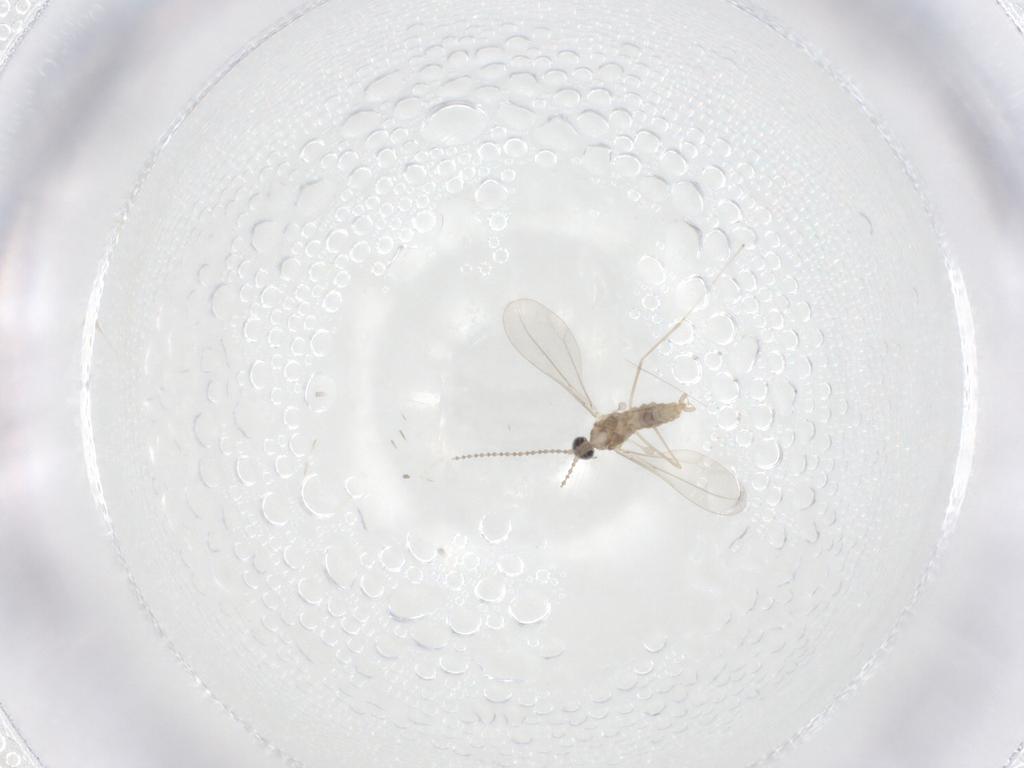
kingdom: Animalia
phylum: Arthropoda
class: Insecta
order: Diptera
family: Cecidomyiidae
